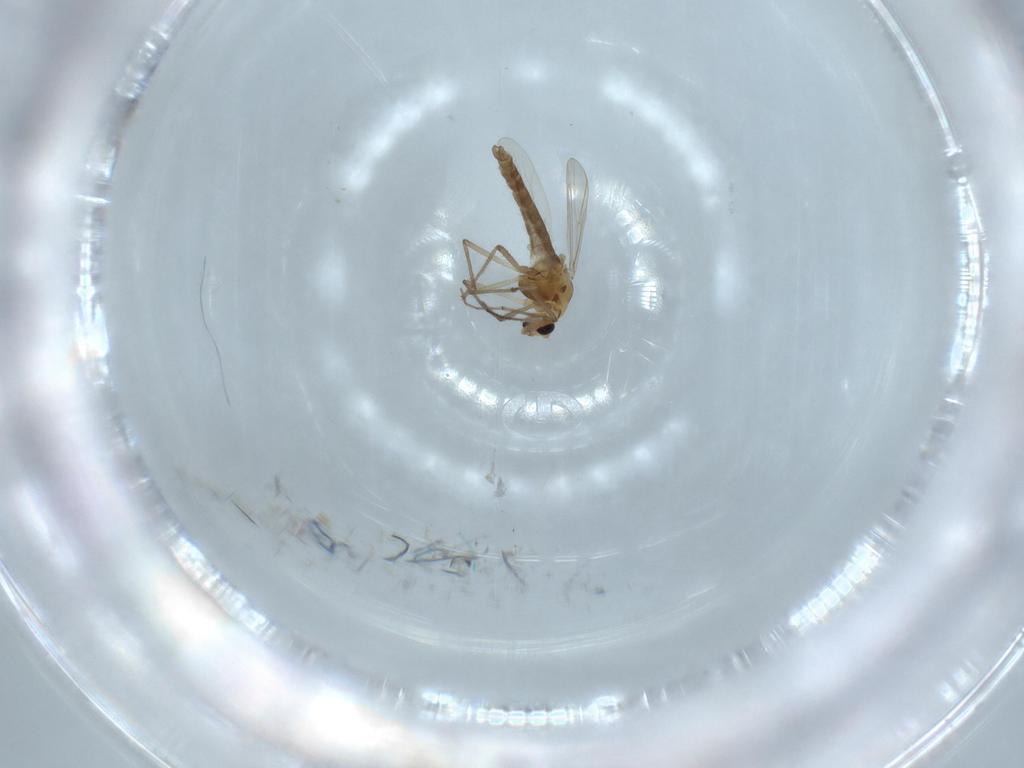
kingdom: Animalia
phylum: Arthropoda
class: Insecta
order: Diptera
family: Chironomidae
